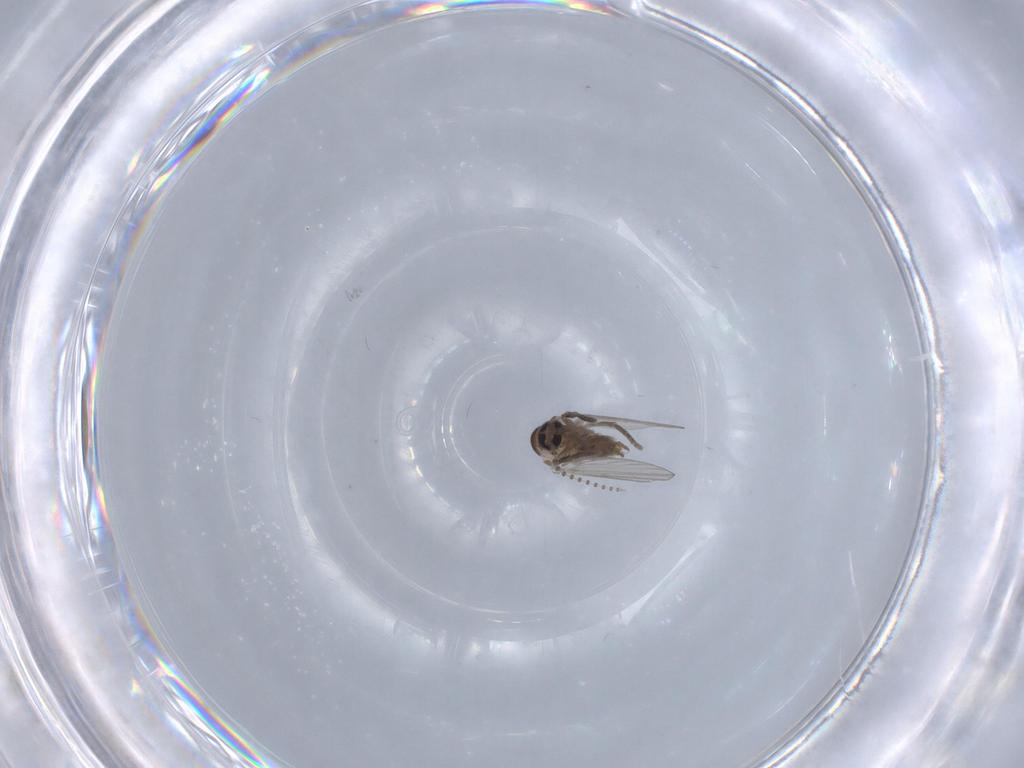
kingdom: Animalia
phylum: Arthropoda
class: Insecta
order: Diptera
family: Psychodidae
